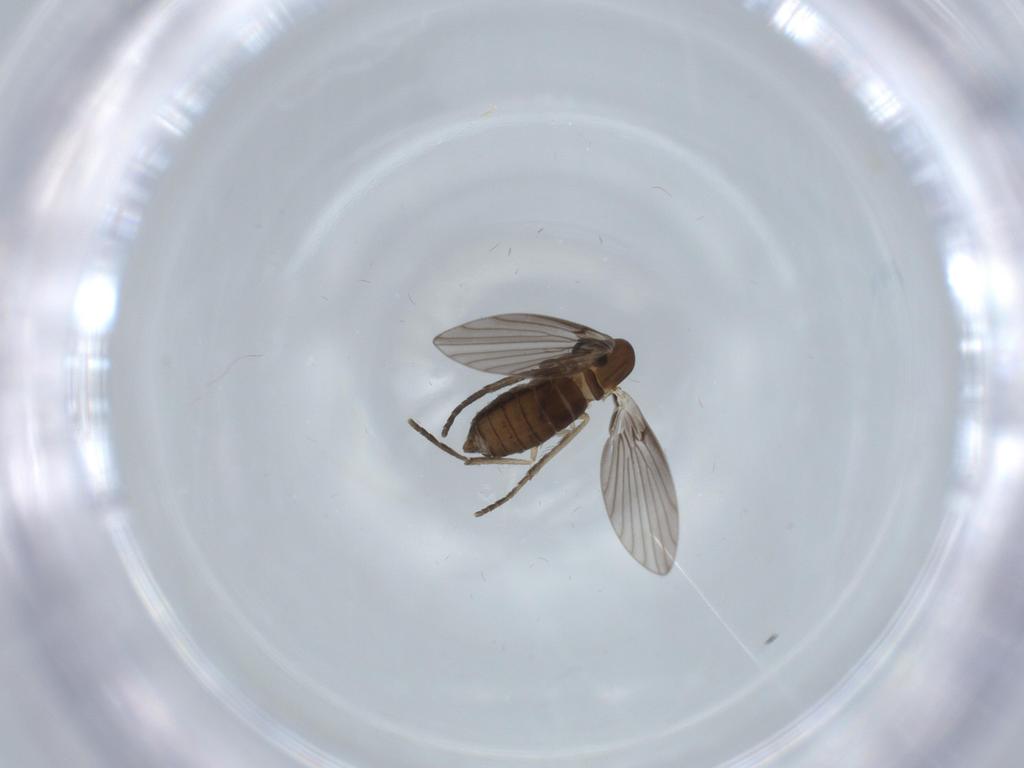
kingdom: Animalia
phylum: Arthropoda
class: Insecta
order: Diptera
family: Psychodidae
